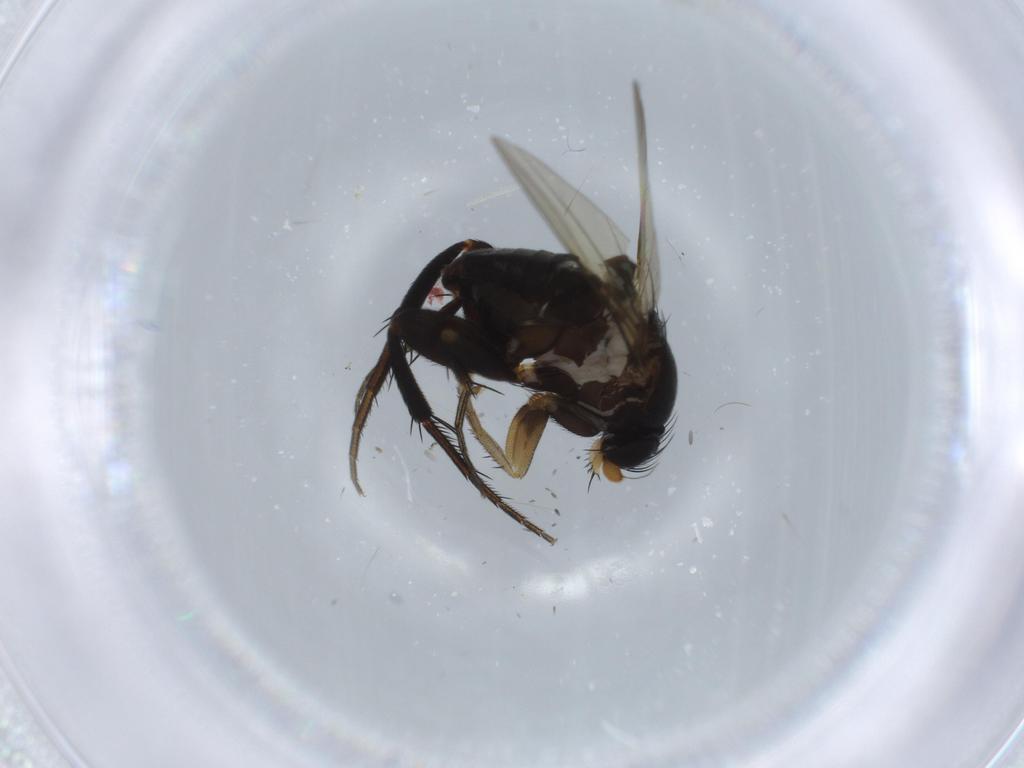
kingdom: Animalia
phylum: Arthropoda
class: Insecta
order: Diptera
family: Phoridae
